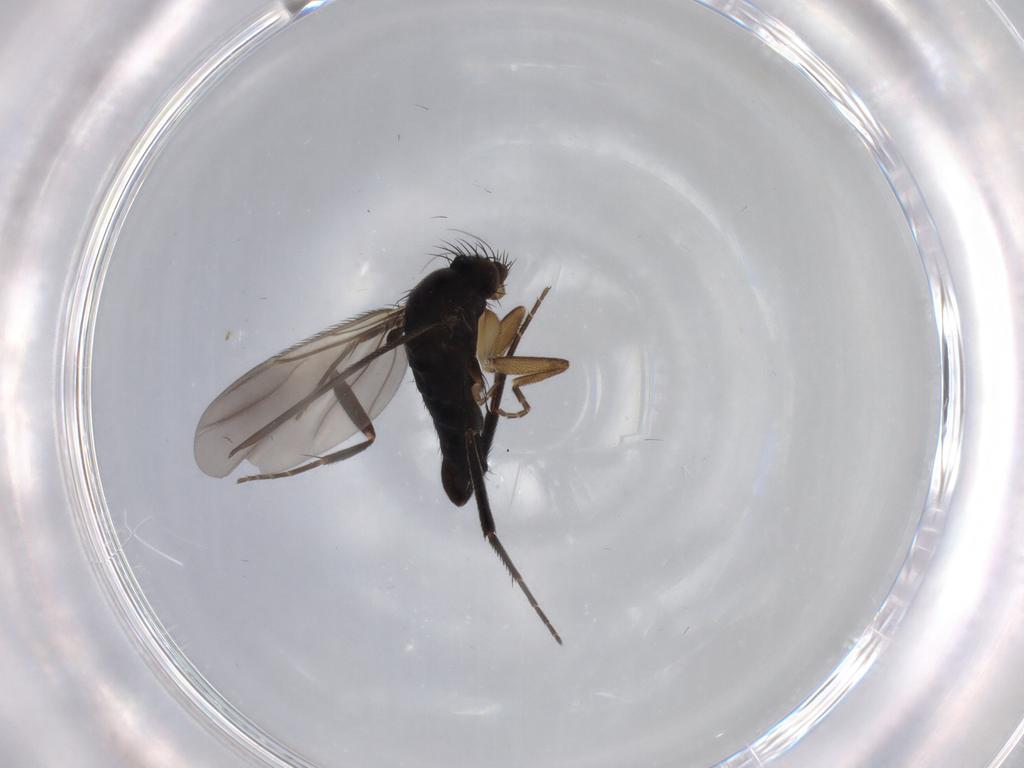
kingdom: Animalia
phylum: Arthropoda
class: Insecta
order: Diptera
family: Phoridae
